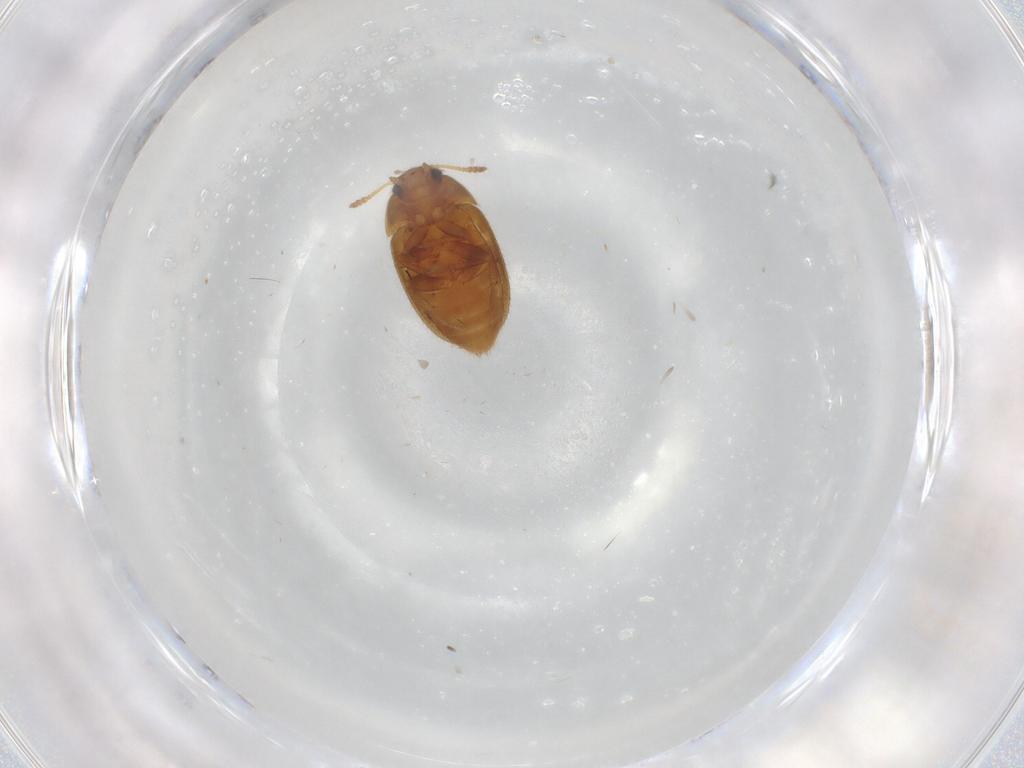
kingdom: Animalia
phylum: Arthropoda
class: Insecta
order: Coleoptera
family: Mycetophagidae
